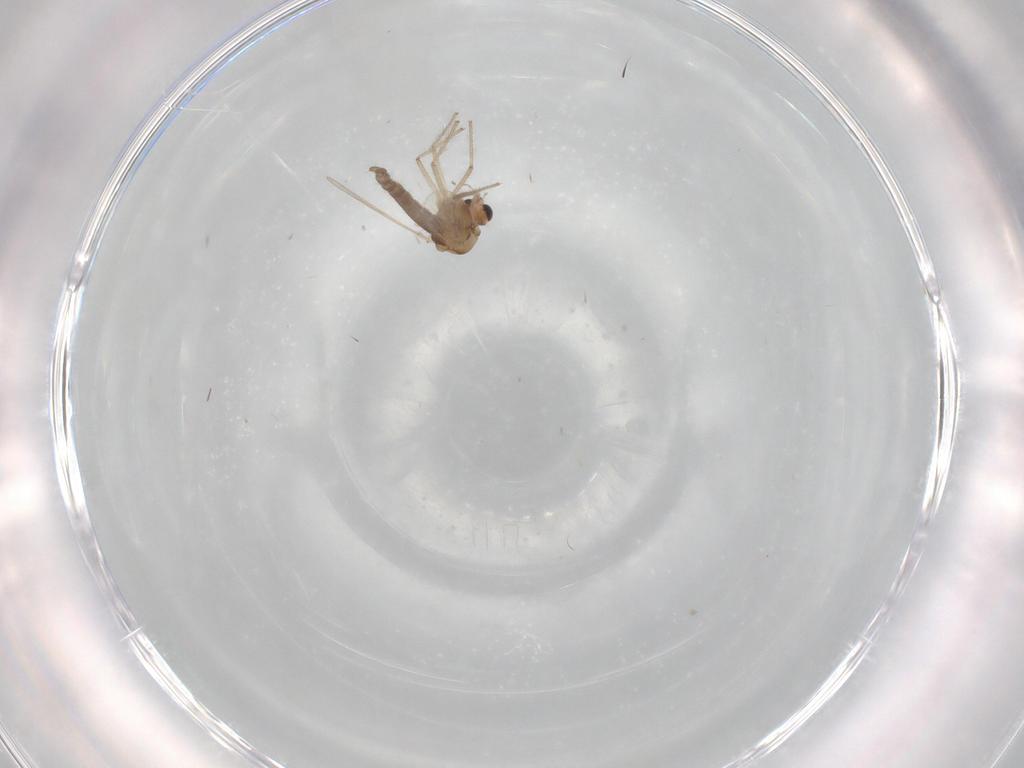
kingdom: Animalia
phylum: Arthropoda
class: Insecta
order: Diptera
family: Chironomidae
